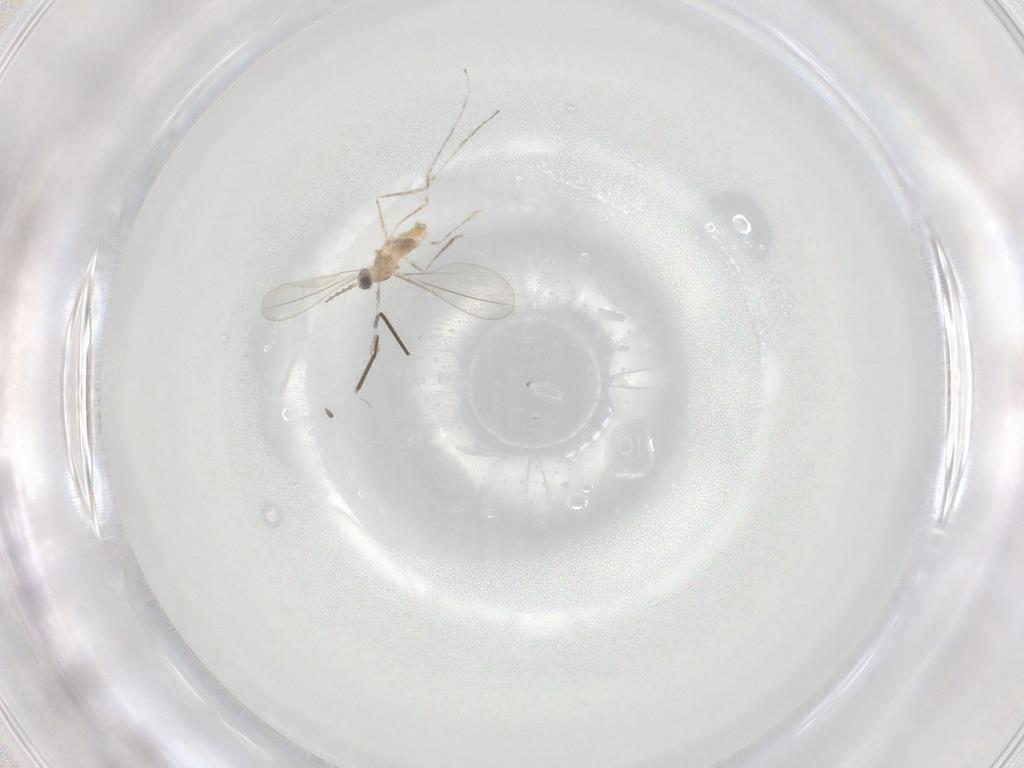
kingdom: Animalia
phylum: Arthropoda
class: Insecta
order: Diptera
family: Cecidomyiidae
